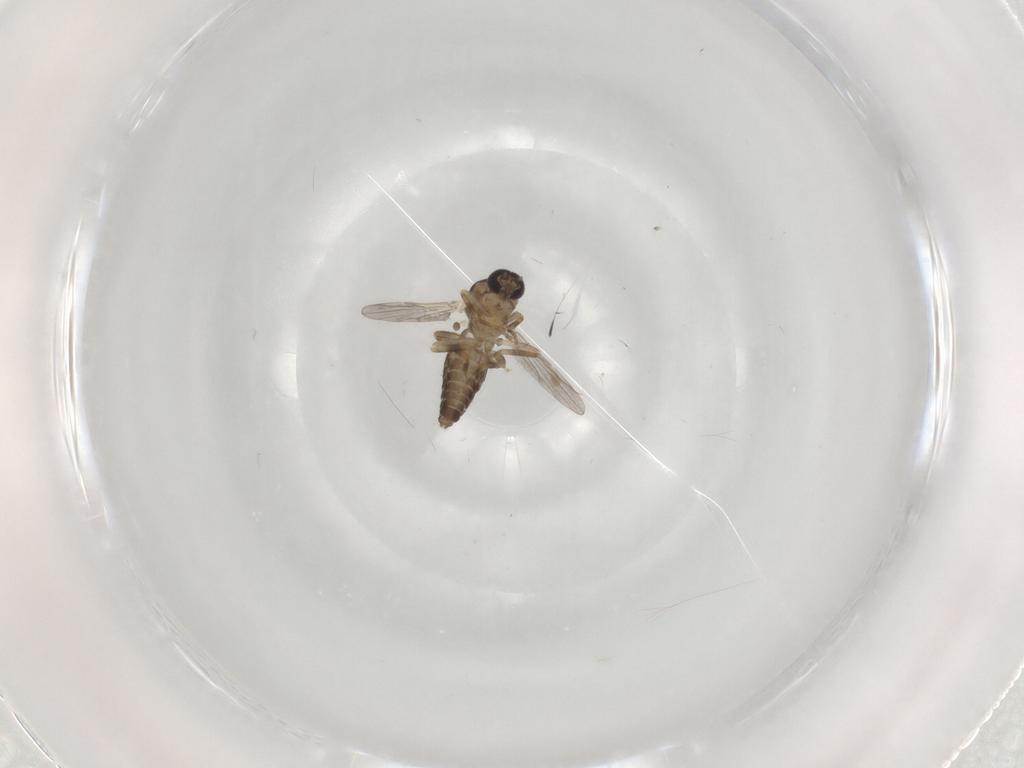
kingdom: Animalia
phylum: Arthropoda
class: Insecta
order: Diptera
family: Ceratopogonidae
